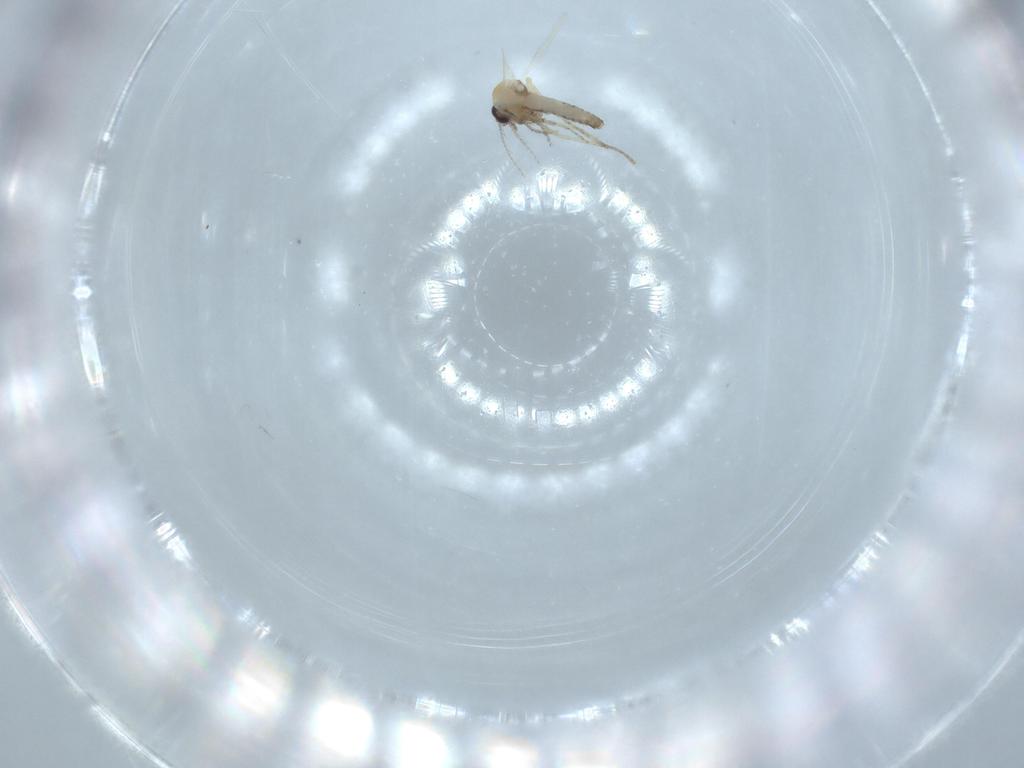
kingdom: Animalia
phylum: Arthropoda
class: Insecta
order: Diptera
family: Sciaridae
